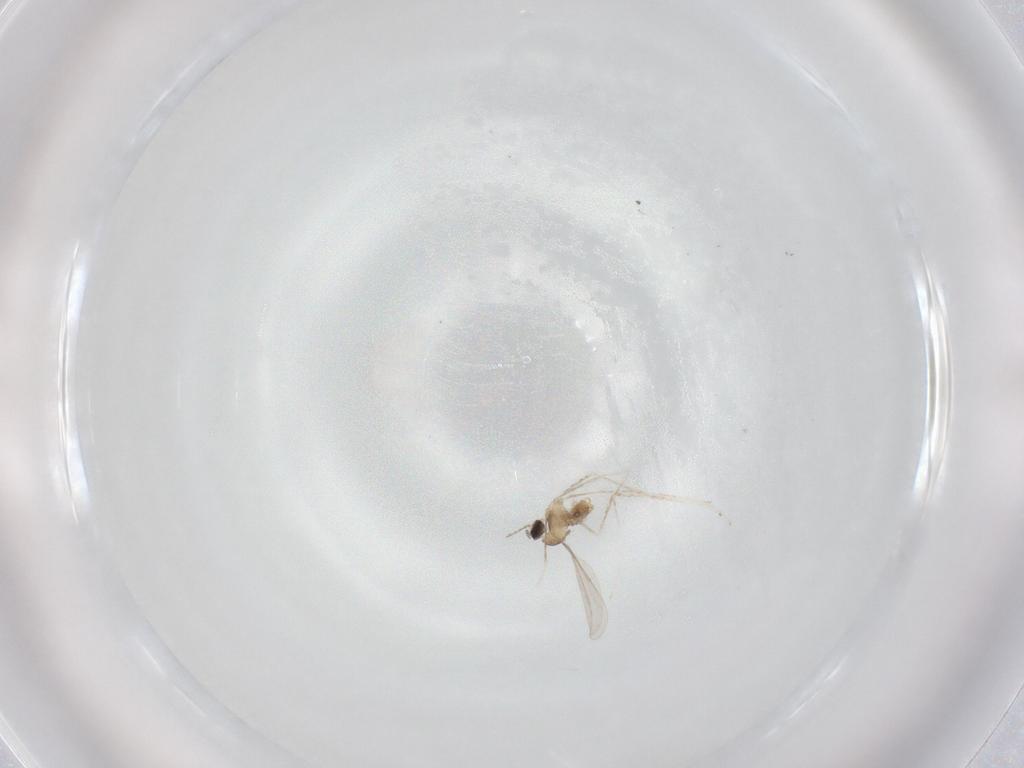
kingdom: Animalia
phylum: Arthropoda
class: Insecta
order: Diptera
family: Cecidomyiidae
